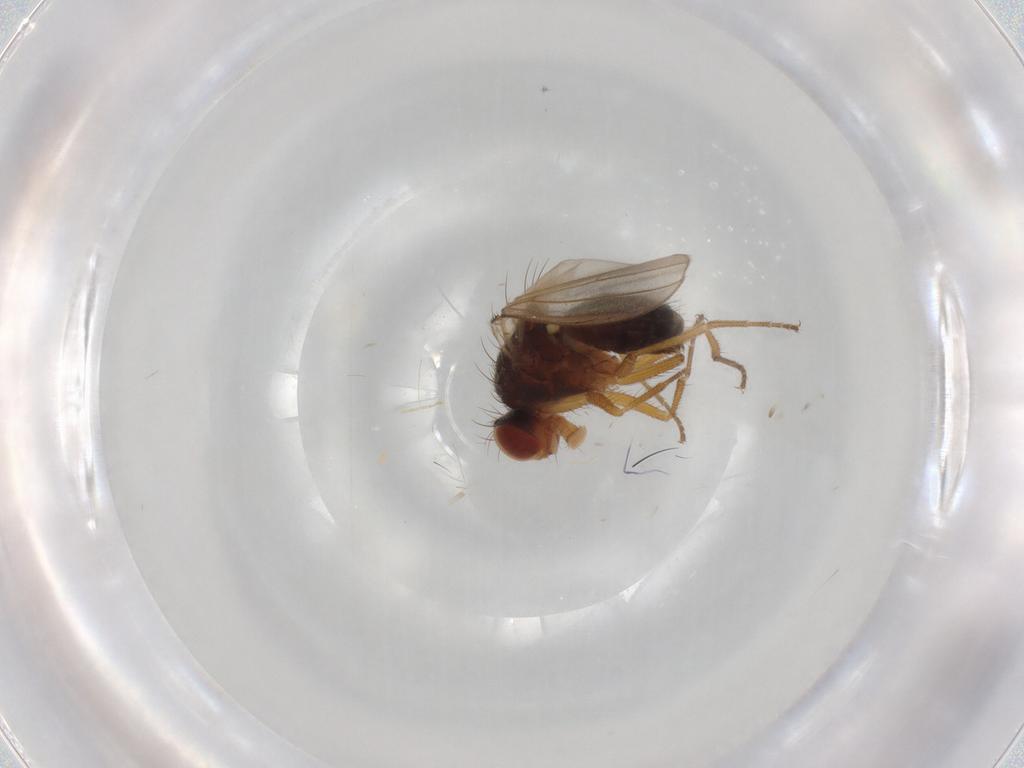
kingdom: Animalia
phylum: Arthropoda
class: Insecta
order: Diptera
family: Drosophilidae
